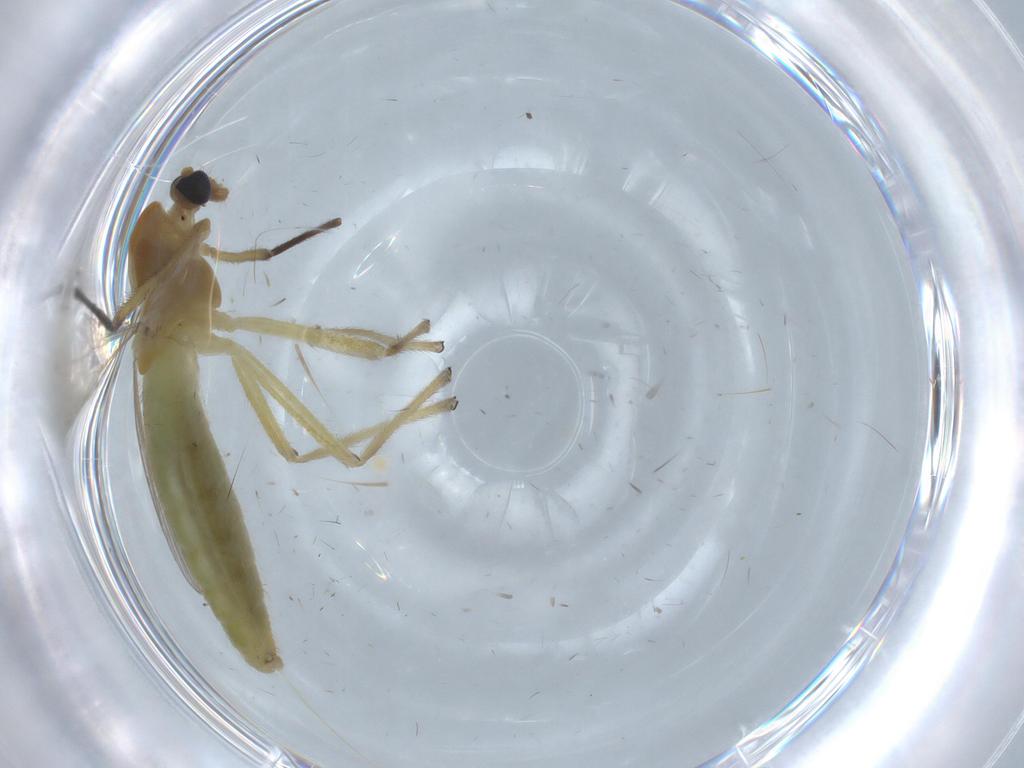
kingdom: Animalia
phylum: Arthropoda
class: Insecta
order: Diptera
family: Chironomidae
